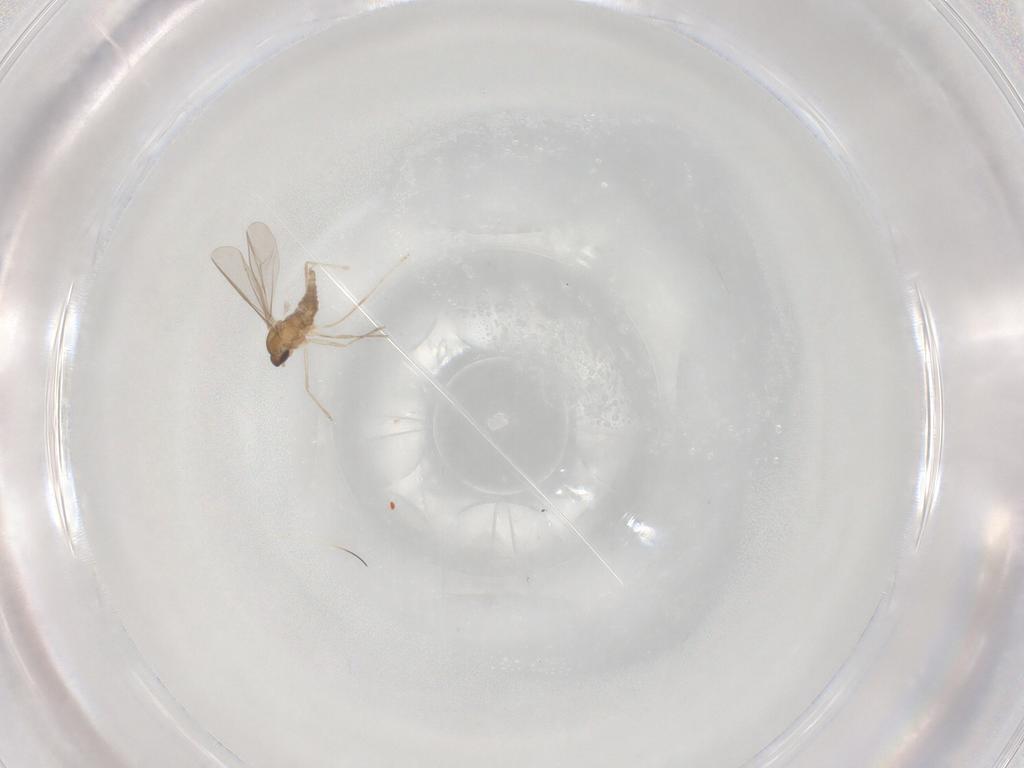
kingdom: Animalia
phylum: Arthropoda
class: Insecta
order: Diptera
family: Cecidomyiidae
